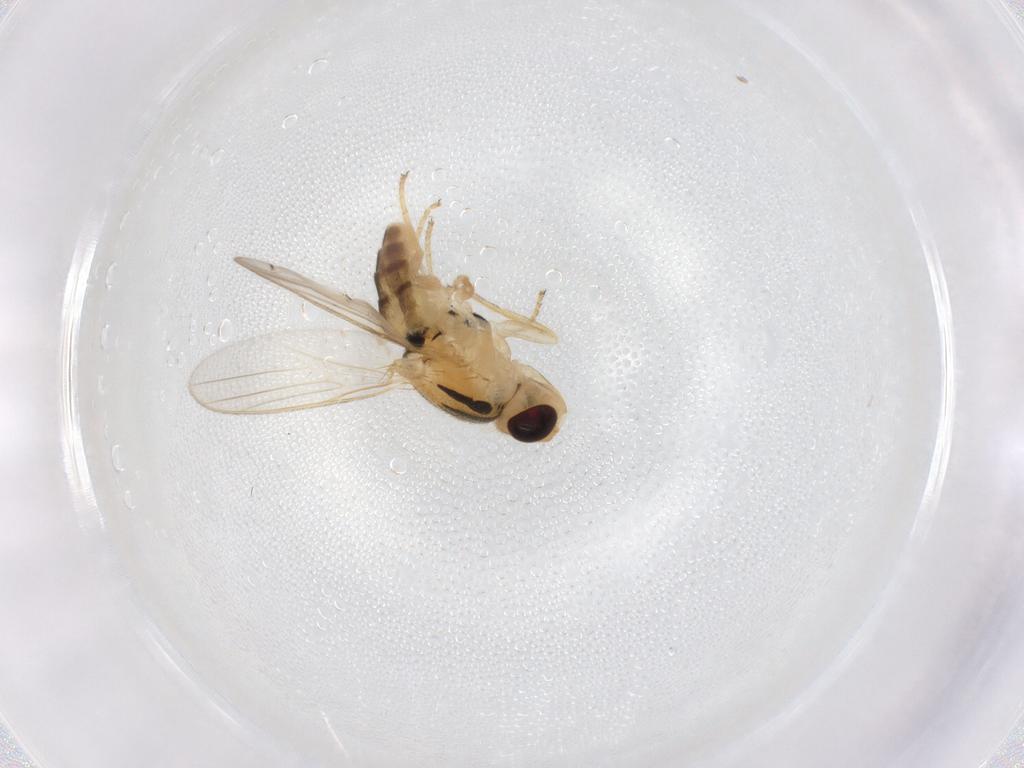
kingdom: Animalia
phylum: Arthropoda
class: Insecta
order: Diptera
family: Chloropidae
